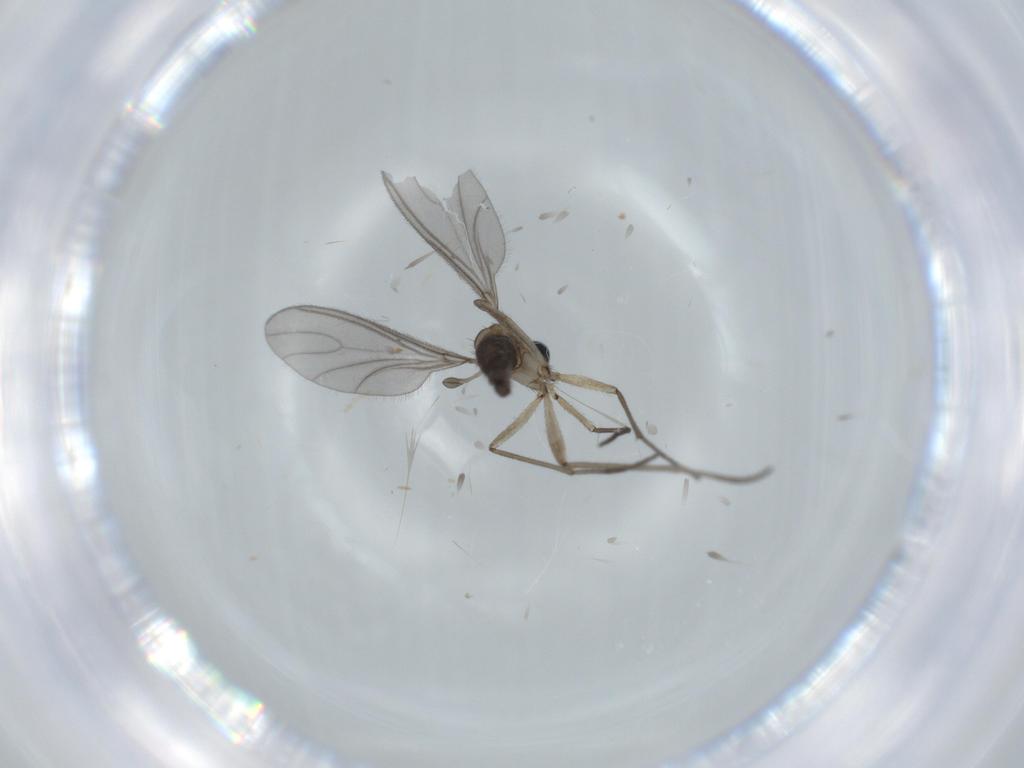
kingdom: Animalia
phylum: Arthropoda
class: Insecta
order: Diptera
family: Sciaridae
